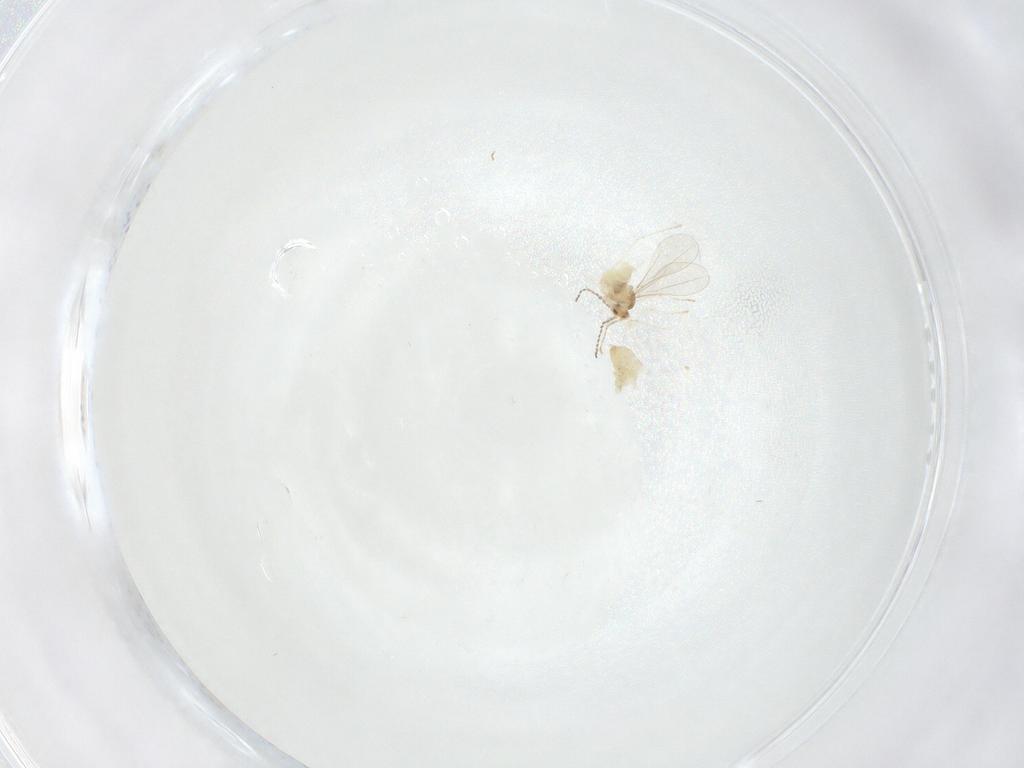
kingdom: Animalia
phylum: Arthropoda
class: Insecta
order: Diptera
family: Cecidomyiidae
